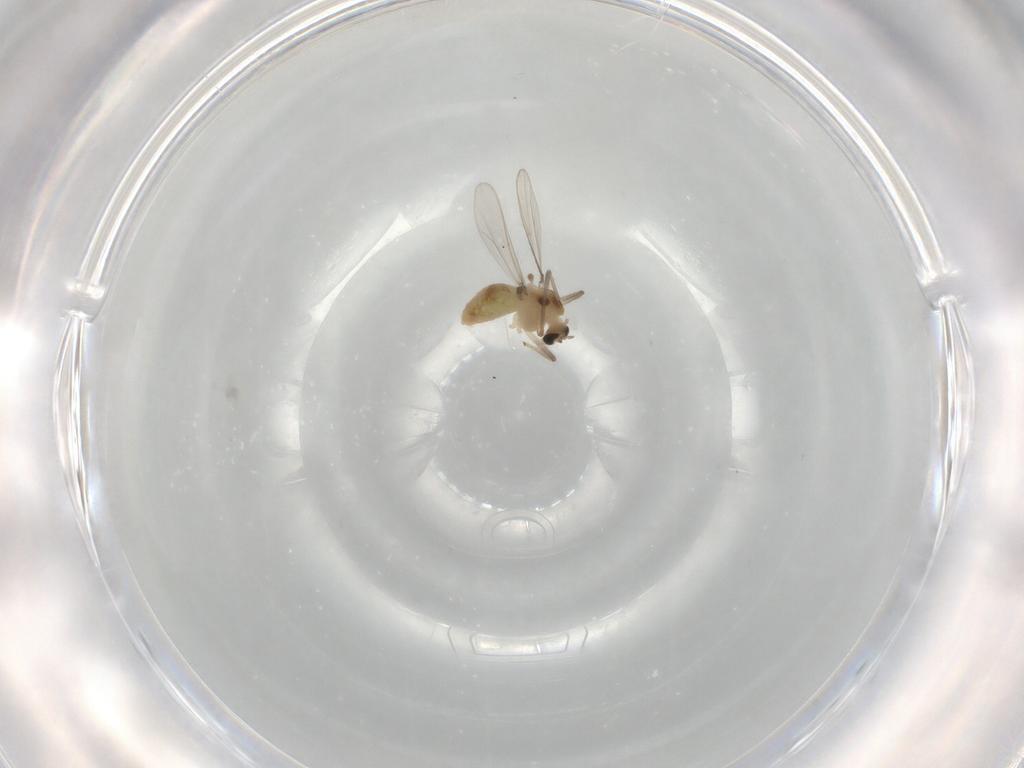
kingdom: Animalia
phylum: Arthropoda
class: Insecta
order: Diptera
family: Chironomidae
